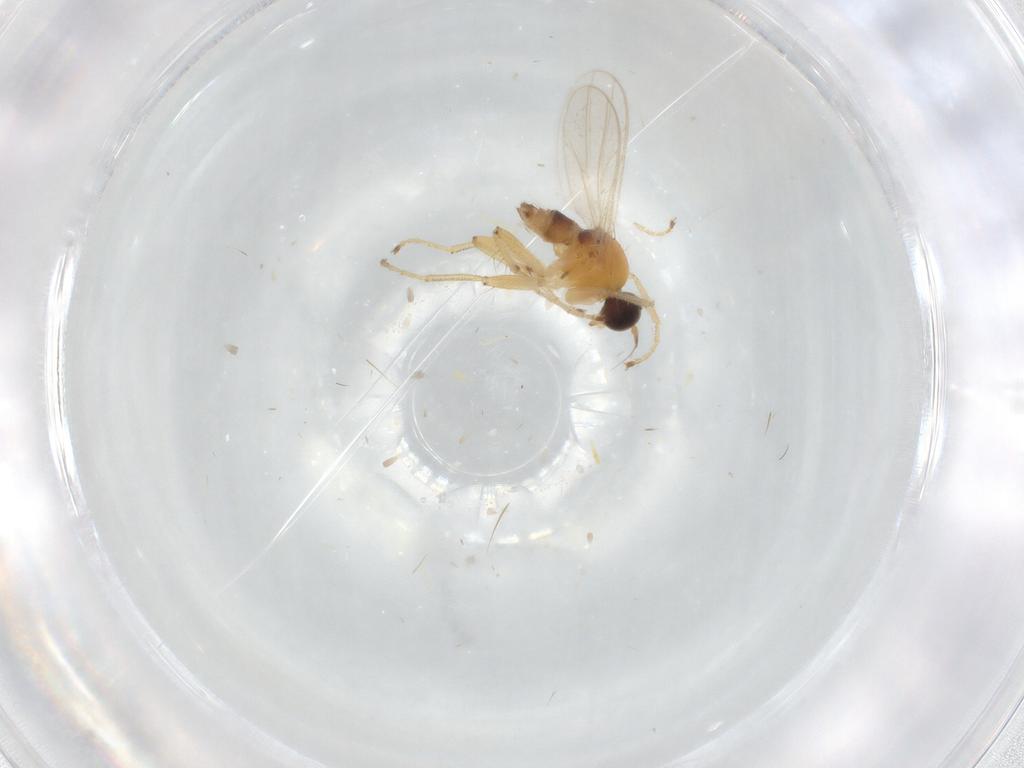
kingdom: Animalia
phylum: Arthropoda
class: Insecta
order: Diptera
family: Hybotidae
